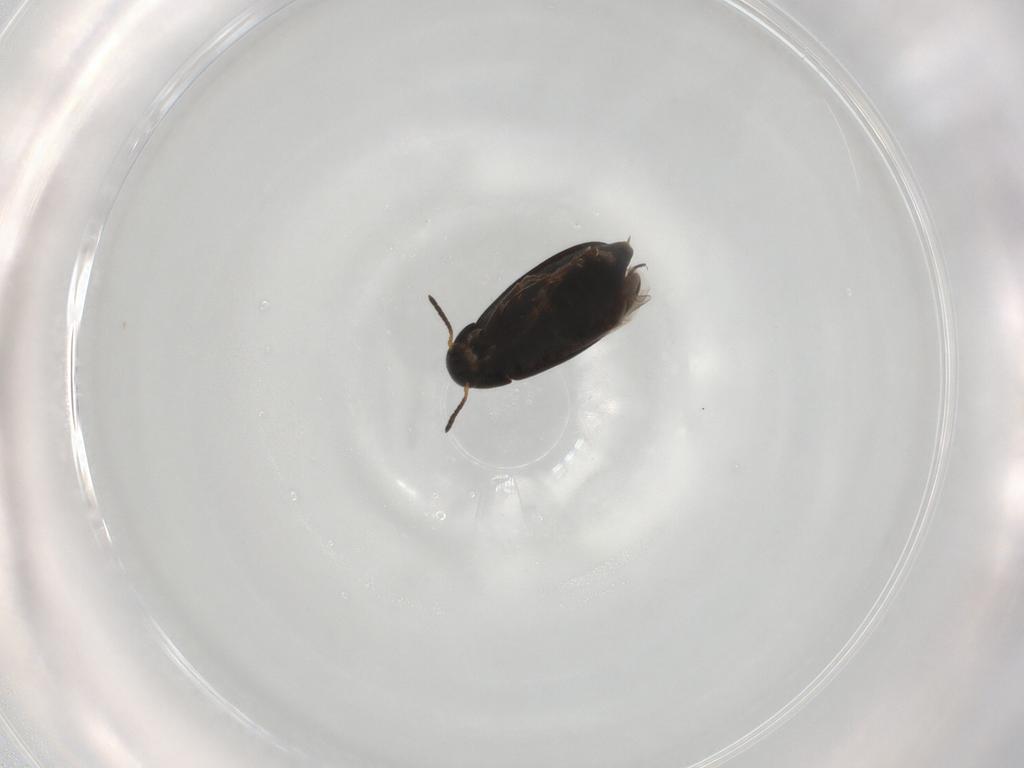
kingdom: Animalia
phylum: Arthropoda
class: Insecta
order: Coleoptera
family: Scraptiidae
